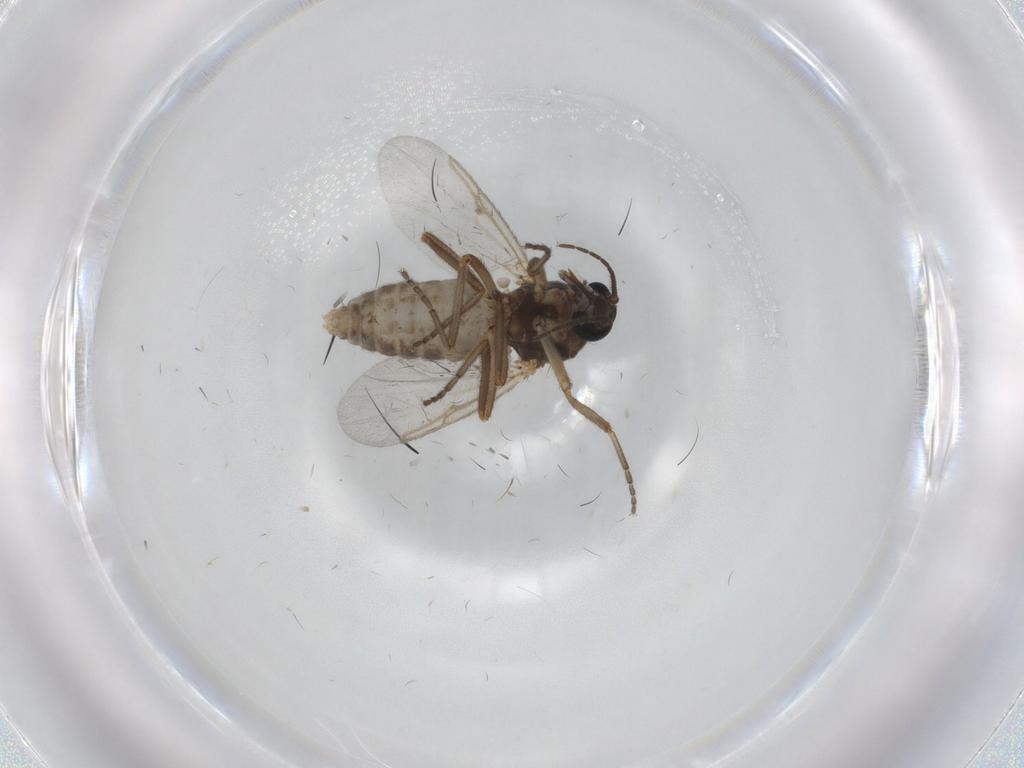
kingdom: Animalia
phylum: Arthropoda
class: Insecta
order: Diptera
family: Ceratopogonidae
